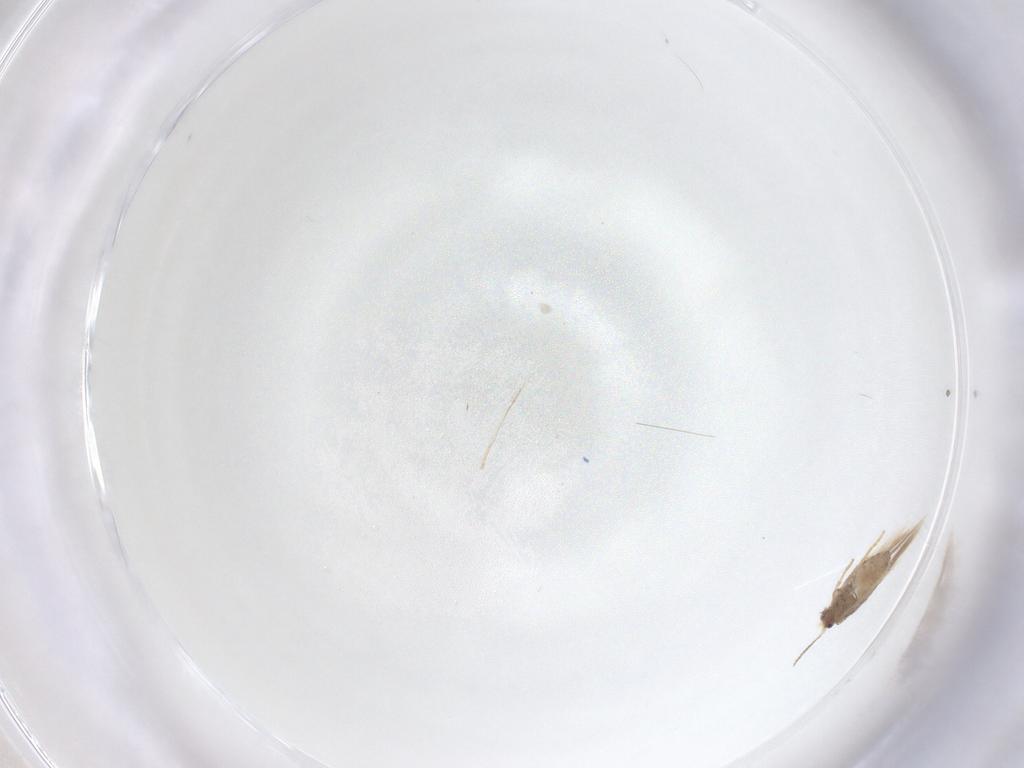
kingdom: Animalia
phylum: Arthropoda
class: Insecta
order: Lepidoptera
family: Nepticulidae
